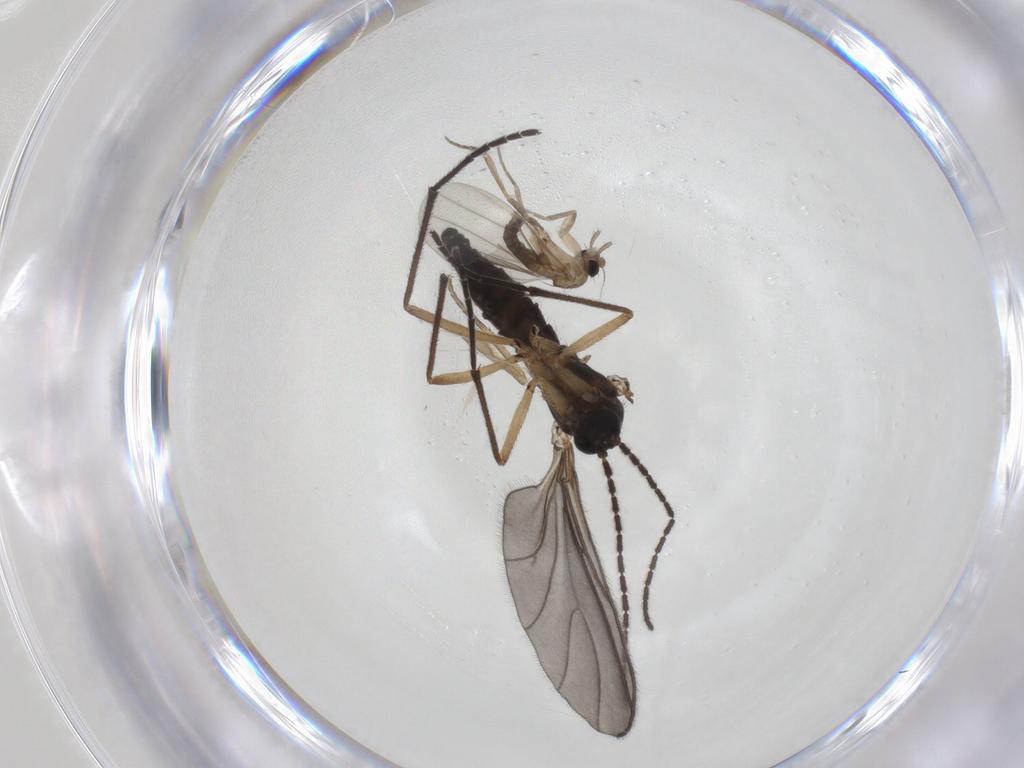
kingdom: Animalia
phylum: Arthropoda
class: Insecta
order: Diptera
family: Sciaridae
